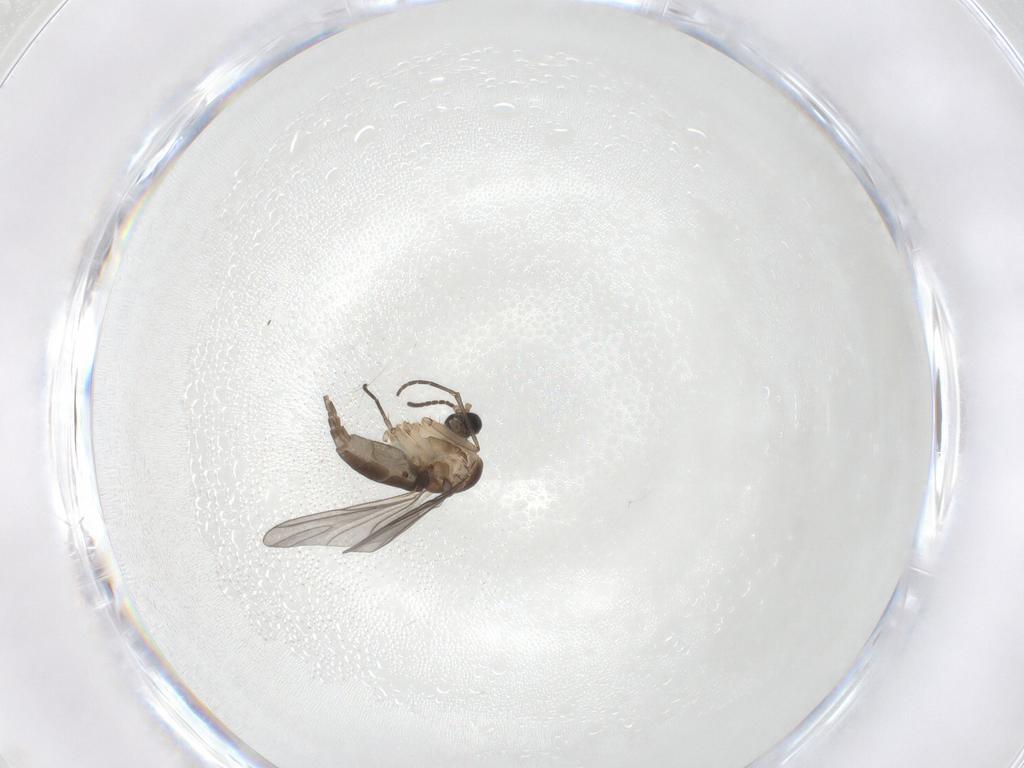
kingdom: Animalia
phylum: Arthropoda
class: Insecta
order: Diptera
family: Sciaridae
